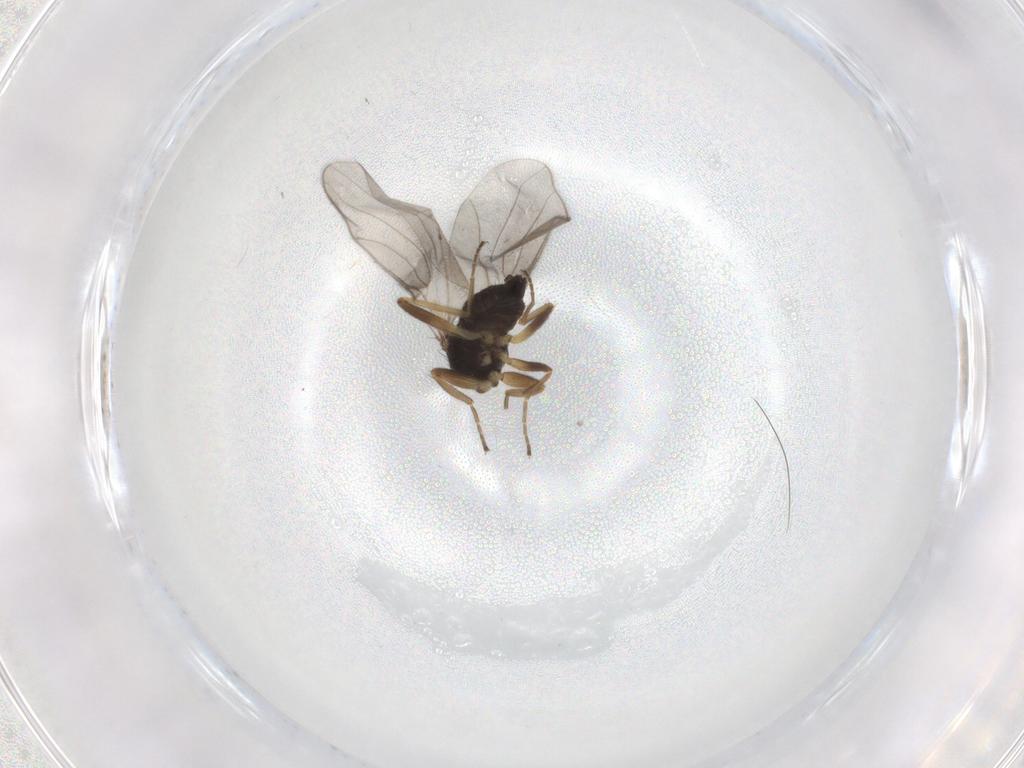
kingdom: Animalia
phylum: Arthropoda
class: Insecta
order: Diptera
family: Hybotidae
